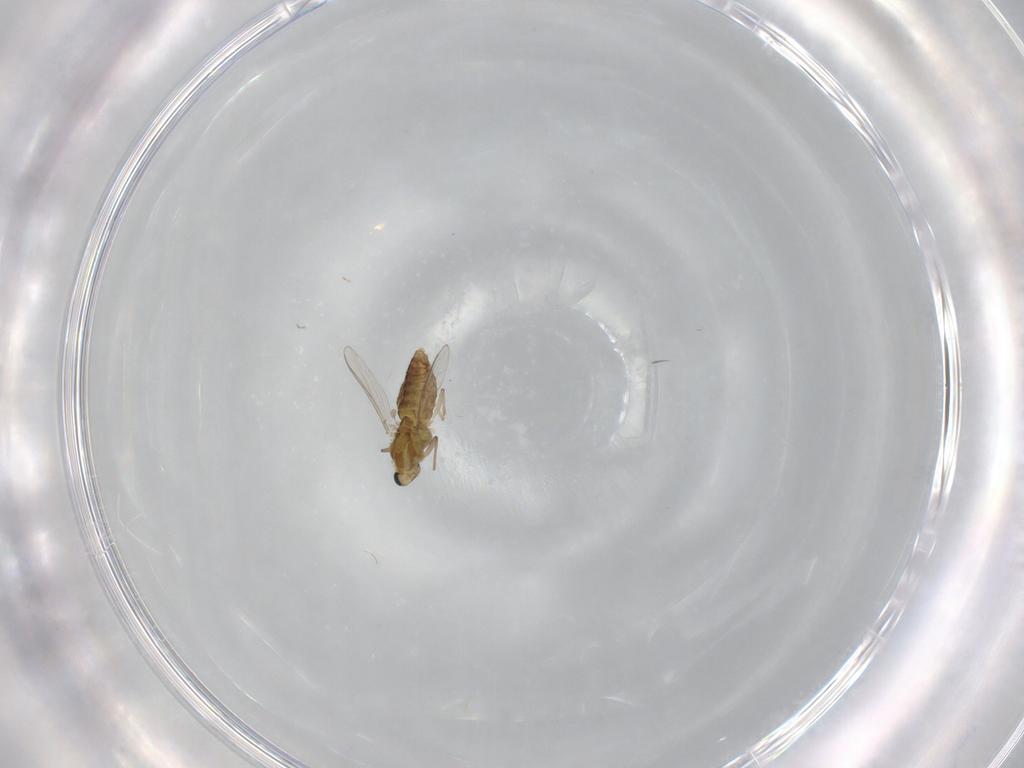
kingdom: Animalia
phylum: Arthropoda
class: Insecta
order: Diptera
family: Chironomidae
